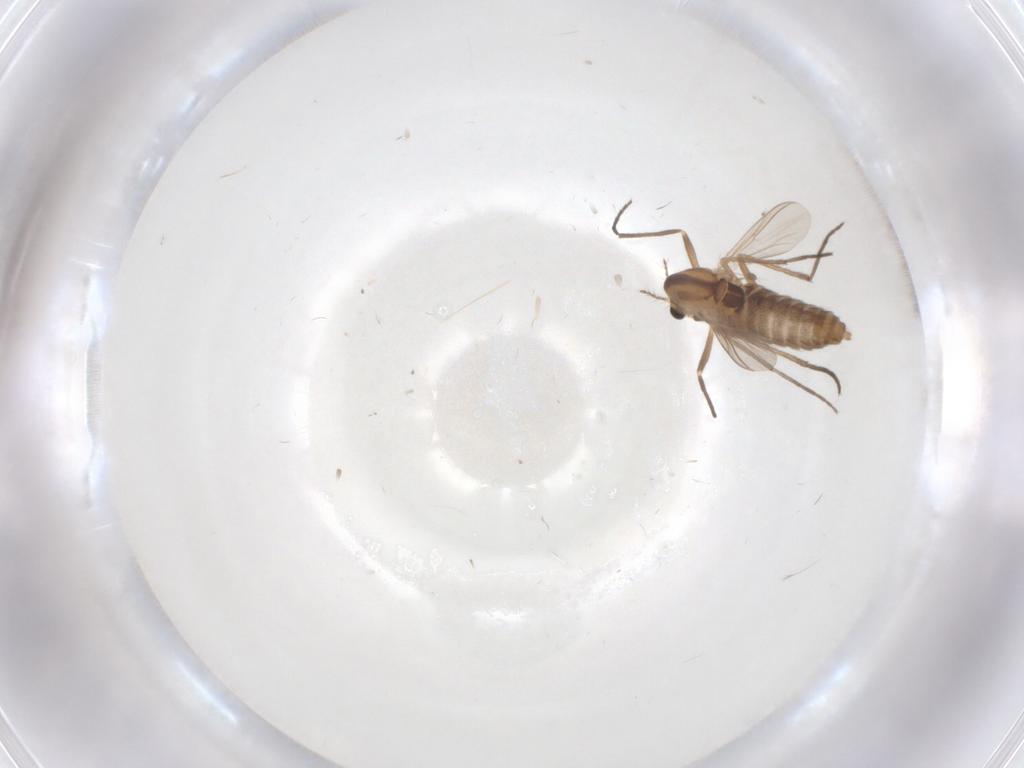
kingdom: Animalia
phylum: Arthropoda
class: Insecta
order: Diptera
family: Chironomidae
